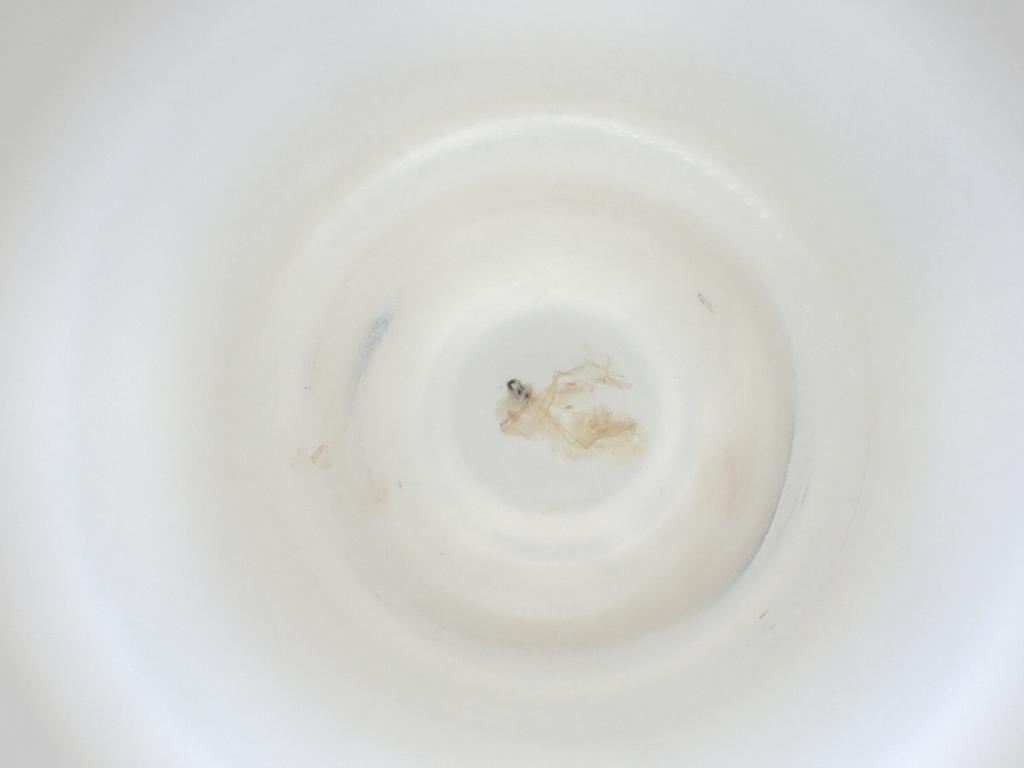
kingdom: Animalia
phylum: Arthropoda
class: Insecta
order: Diptera
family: Cecidomyiidae
